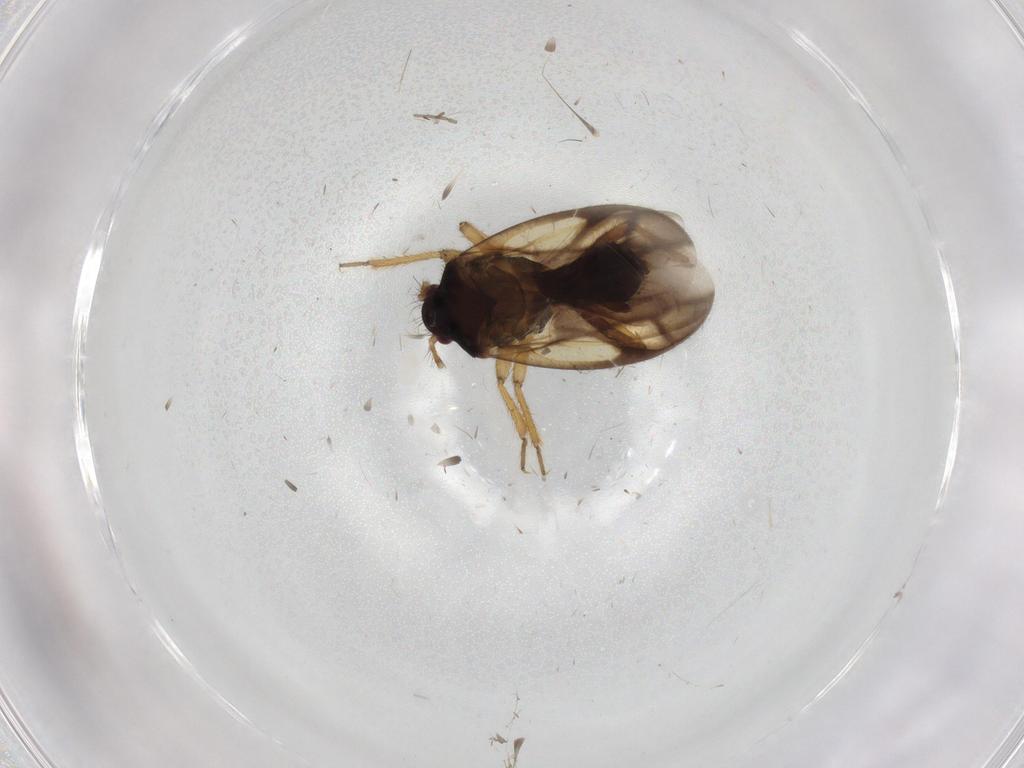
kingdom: Animalia
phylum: Arthropoda
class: Insecta
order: Hemiptera
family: Ceratocombidae
